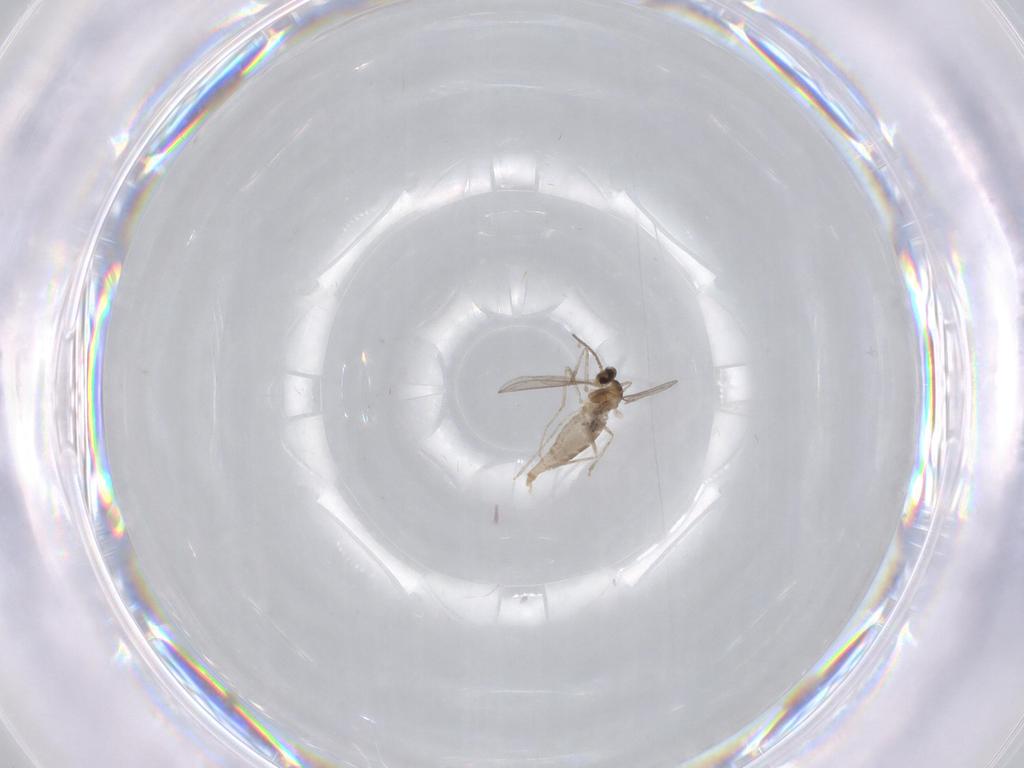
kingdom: Animalia
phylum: Arthropoda
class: Insecta
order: Diptera
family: Chironomidae
